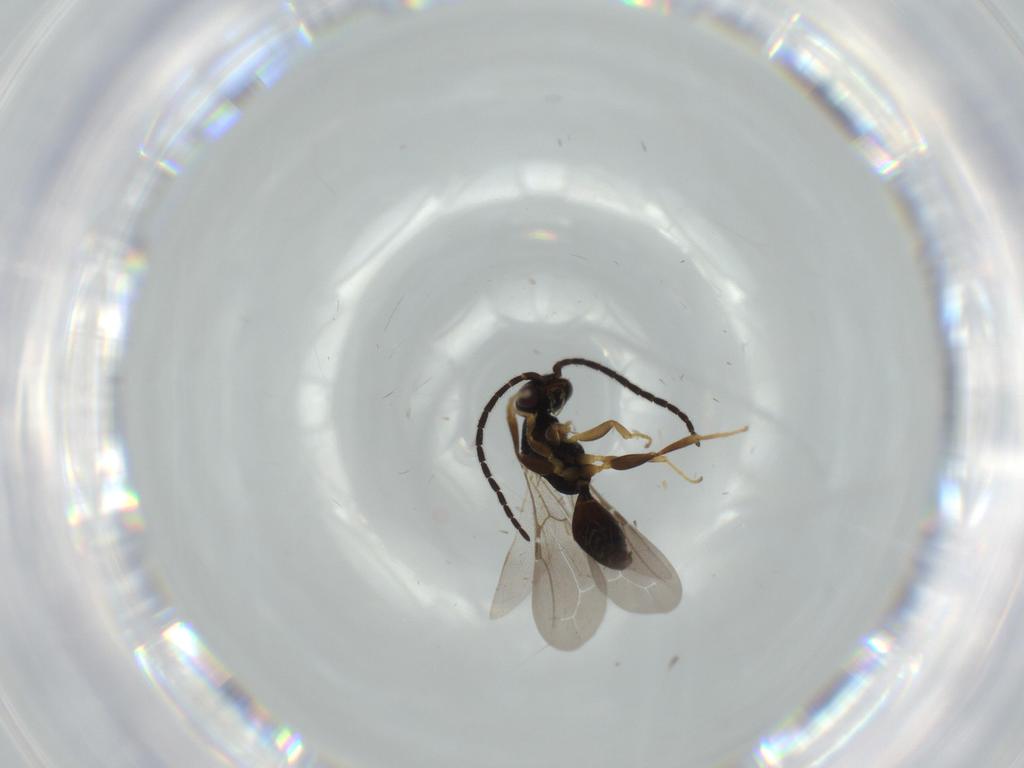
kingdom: Animalia
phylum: Arthropoda
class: Insecta
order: Hymenoptera
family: Bethylidae
